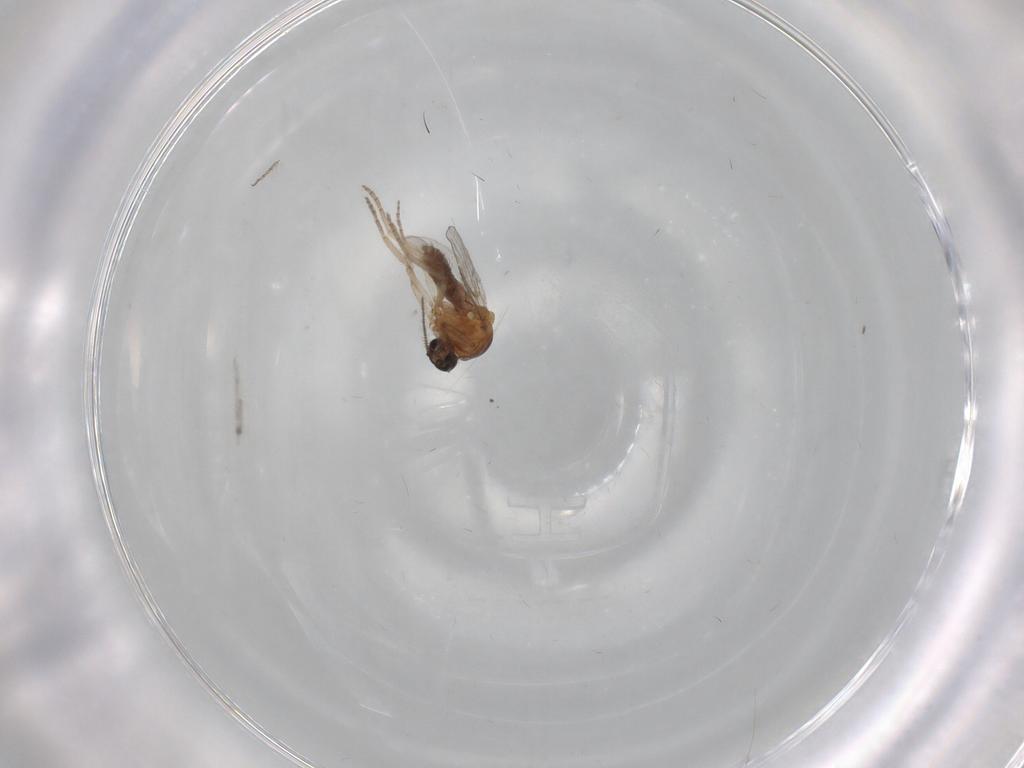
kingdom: Animalia
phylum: Arthropoda
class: Insecta
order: Diptera
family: Ceratopogonidae
